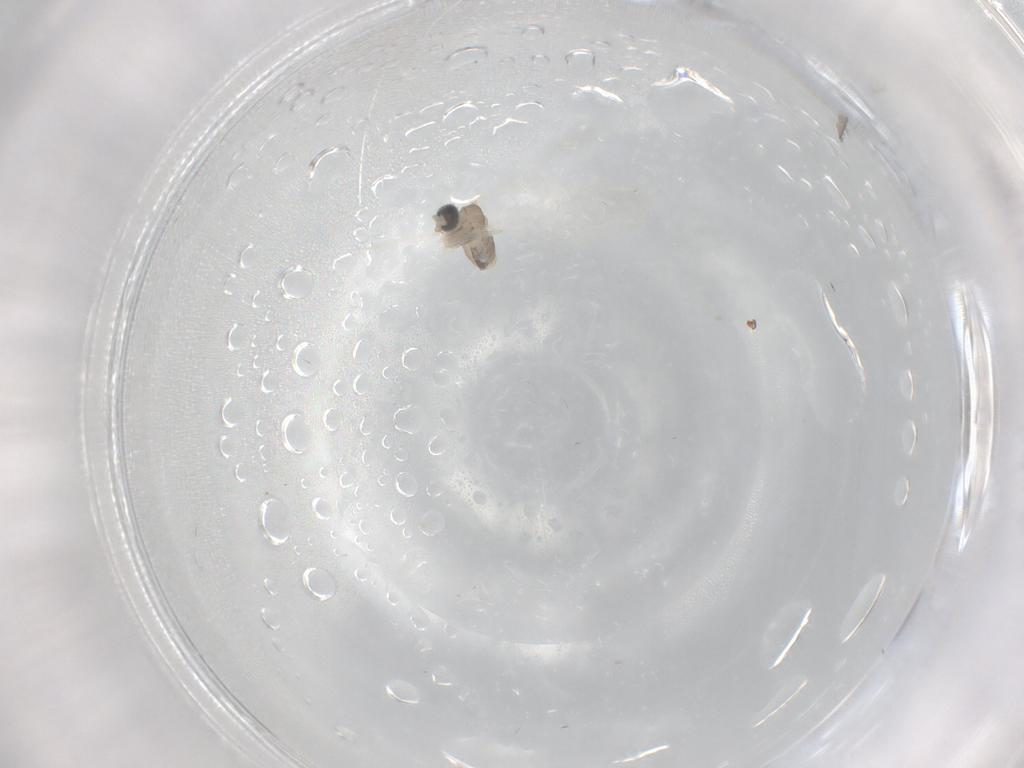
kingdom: Animalia
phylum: Arthropoda
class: Insecta
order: Diptera
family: Cecidomyiidae
